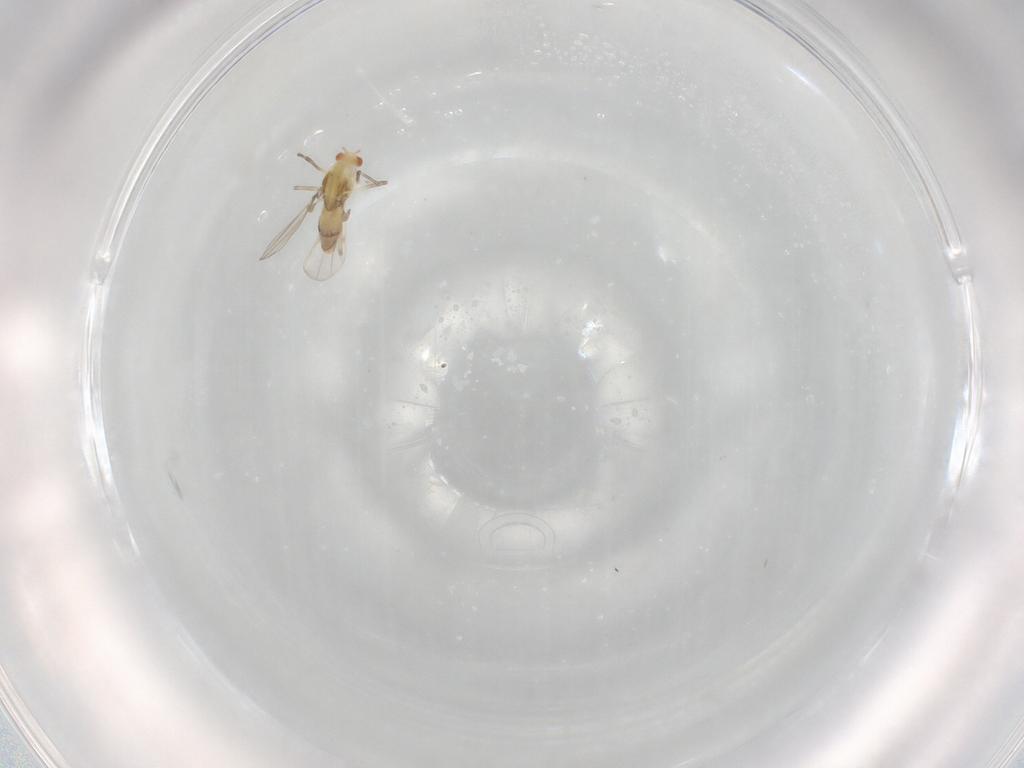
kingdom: Animalia
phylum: Arthropoda
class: Insecta
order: Diptera
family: Chironomidae
